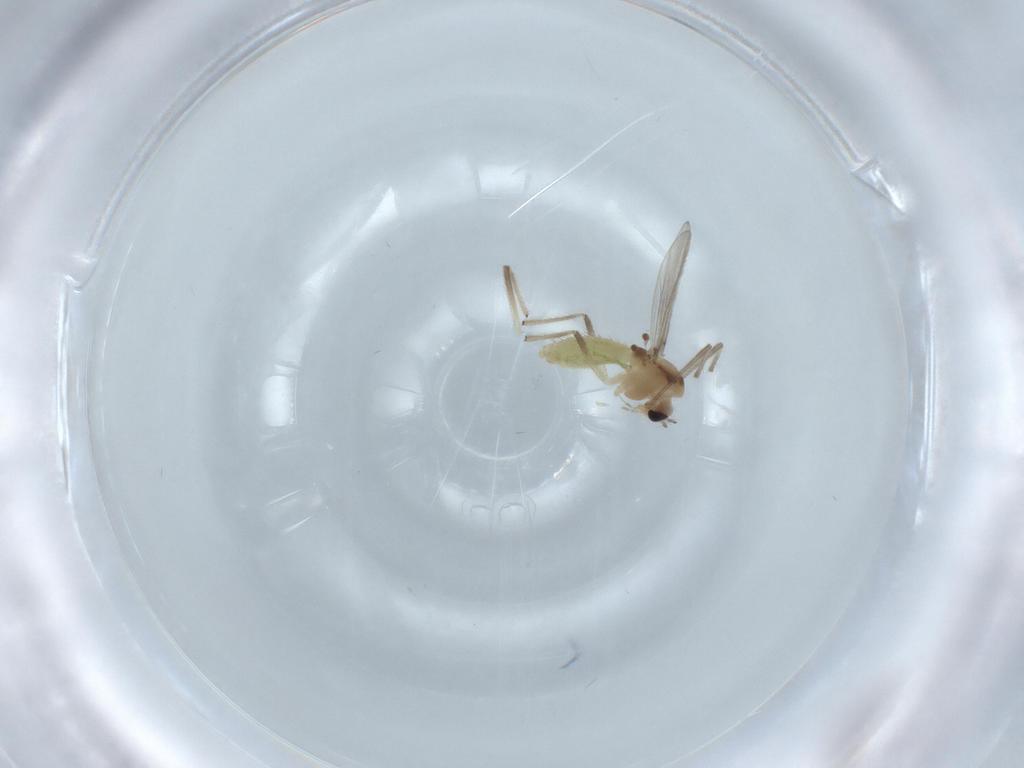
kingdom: Animalia
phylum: Arthropoda
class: Insecta
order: Diptera
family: Chironomidae
